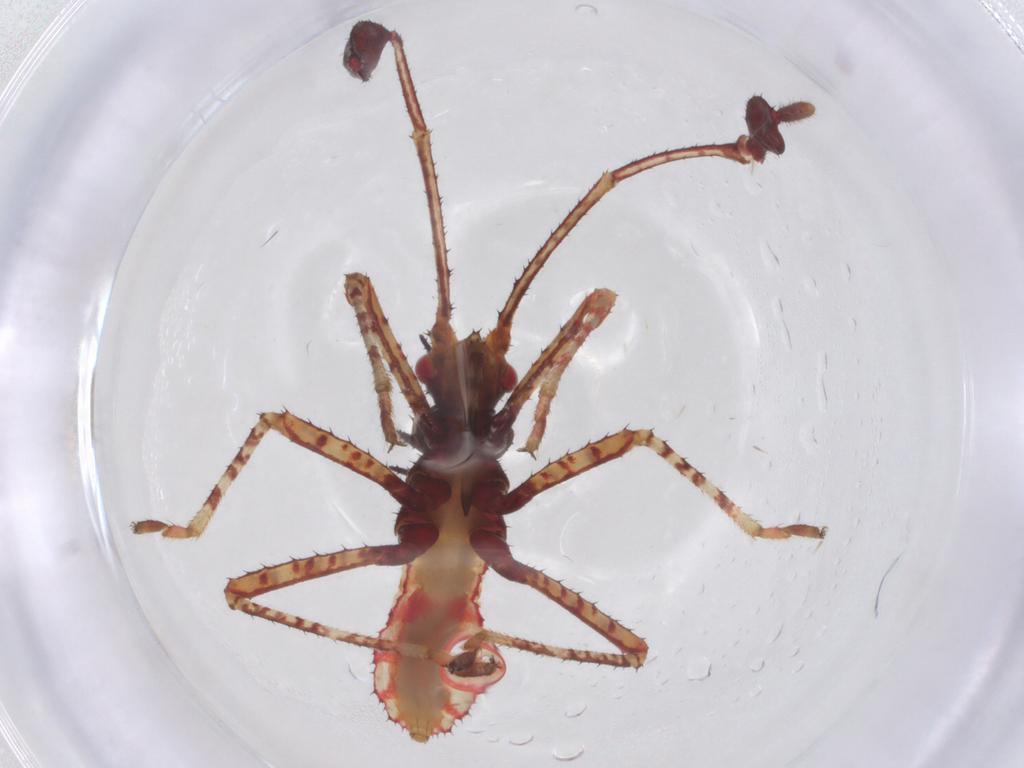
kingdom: Animalia
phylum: Arthropoda
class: Insecta
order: Hemiptera
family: Coreidae
